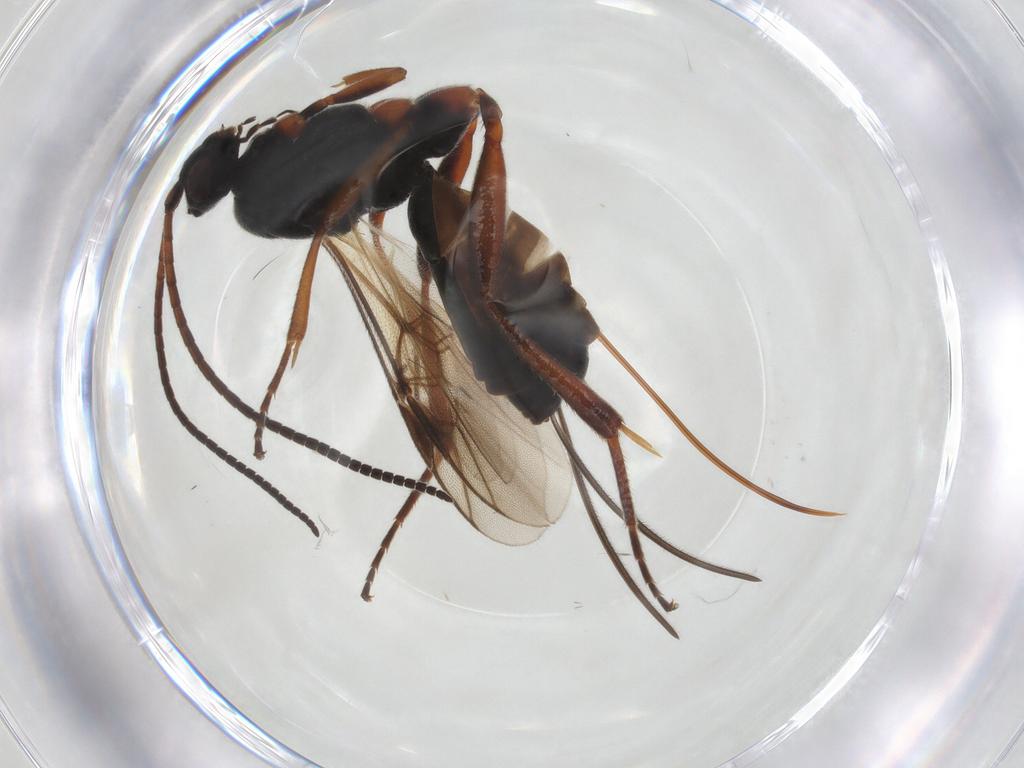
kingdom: Animalia
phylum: Arthropoda
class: Insecta
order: Hymenoptera
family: Braconidae
